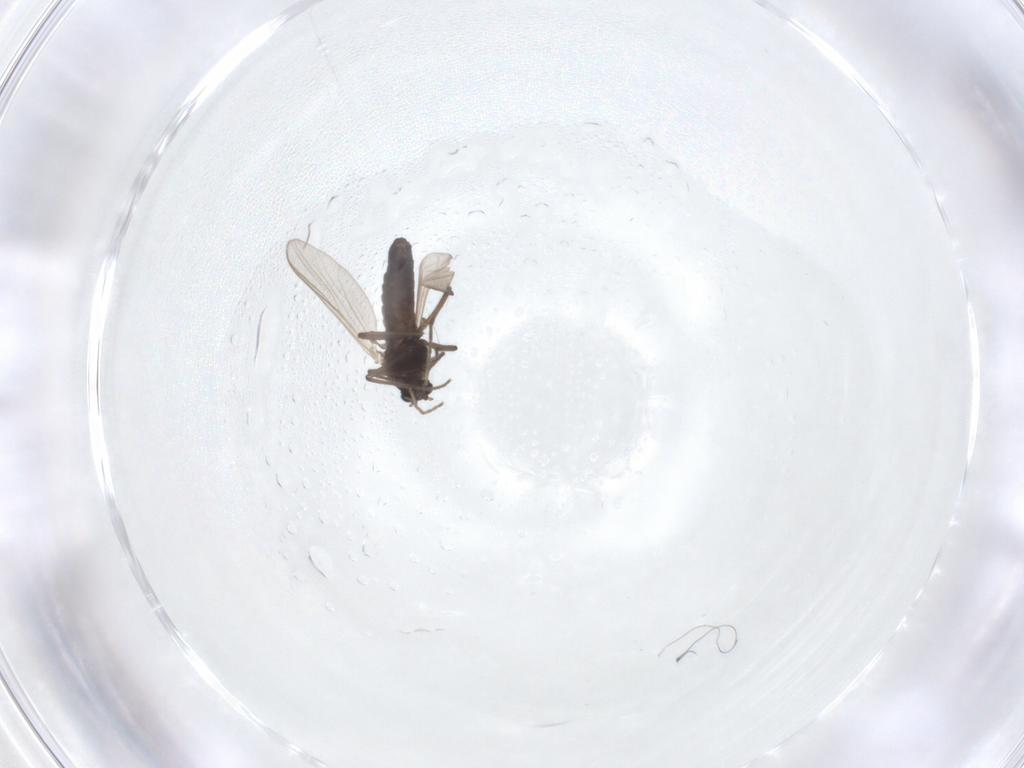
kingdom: Animalia
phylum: Arthropoda
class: Insecta
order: Diptera
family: Chironomidae
